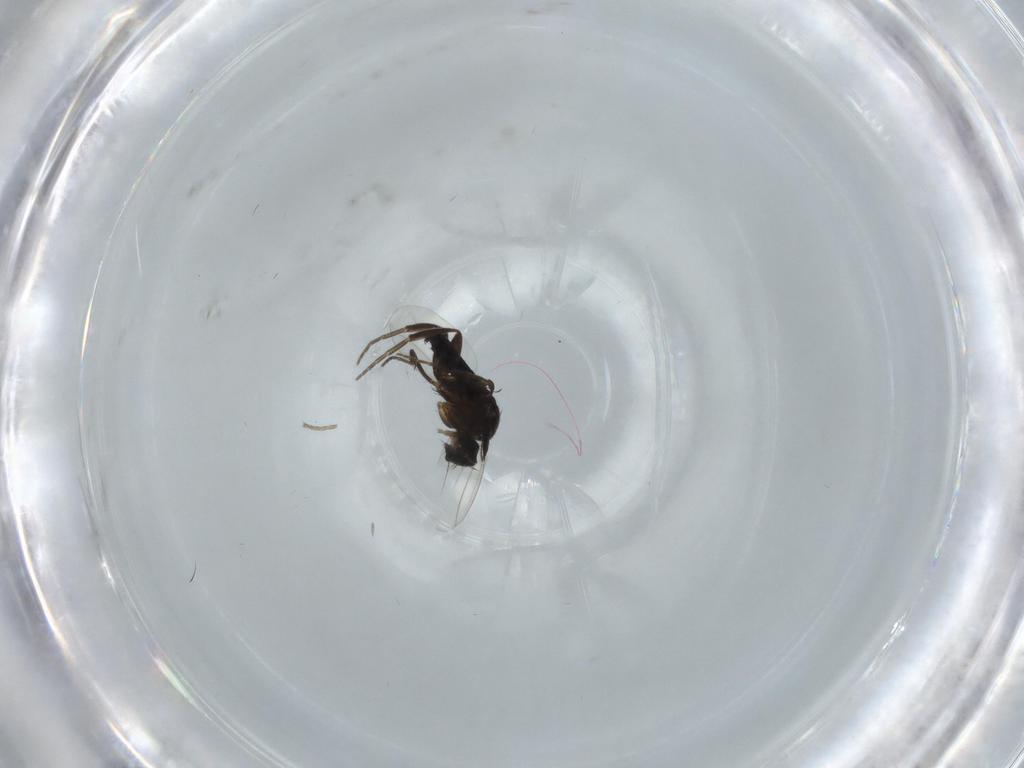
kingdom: Animalia
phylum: Arthropoda
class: Insecta
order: Diptera
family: Phoridae
